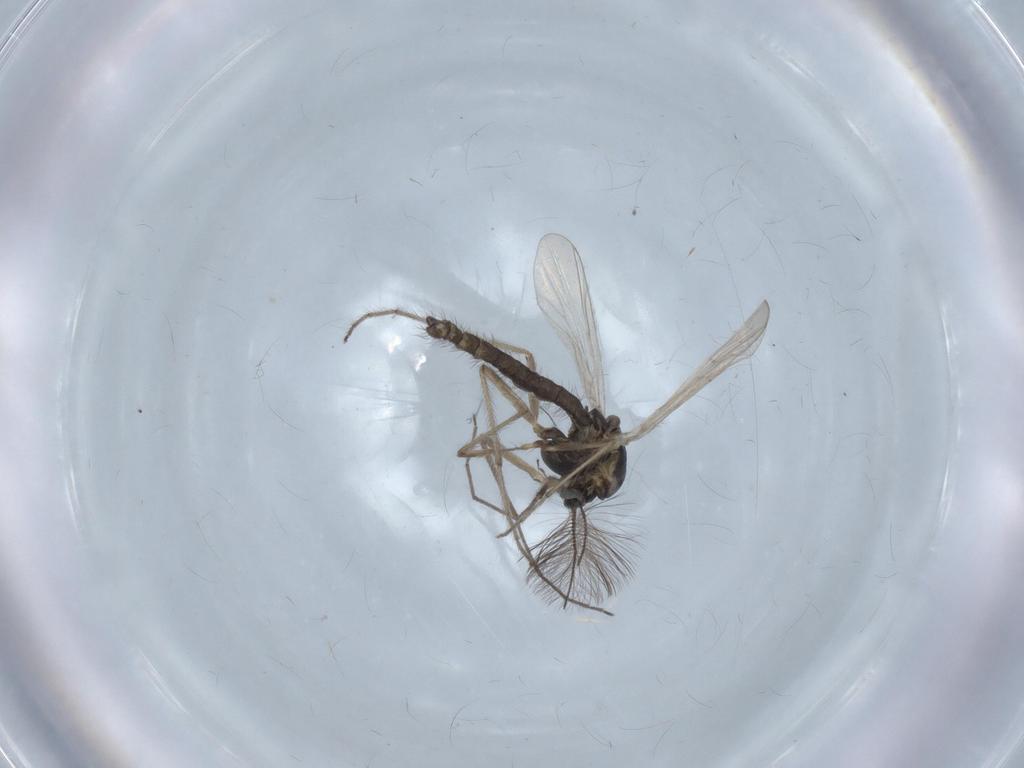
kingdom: Animalia
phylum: Arthropoda
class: Insecta
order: Diptera
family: Chironomidae
